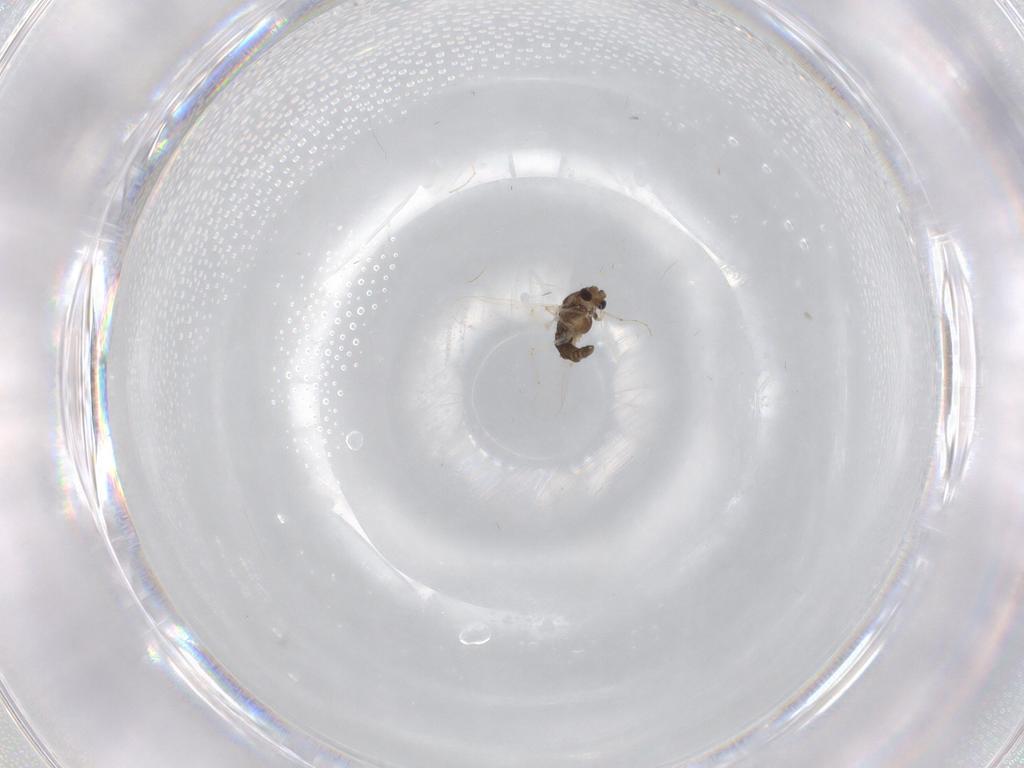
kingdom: Animalia
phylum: Arthropoda
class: Insecta
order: Diptera
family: Chironomidae
